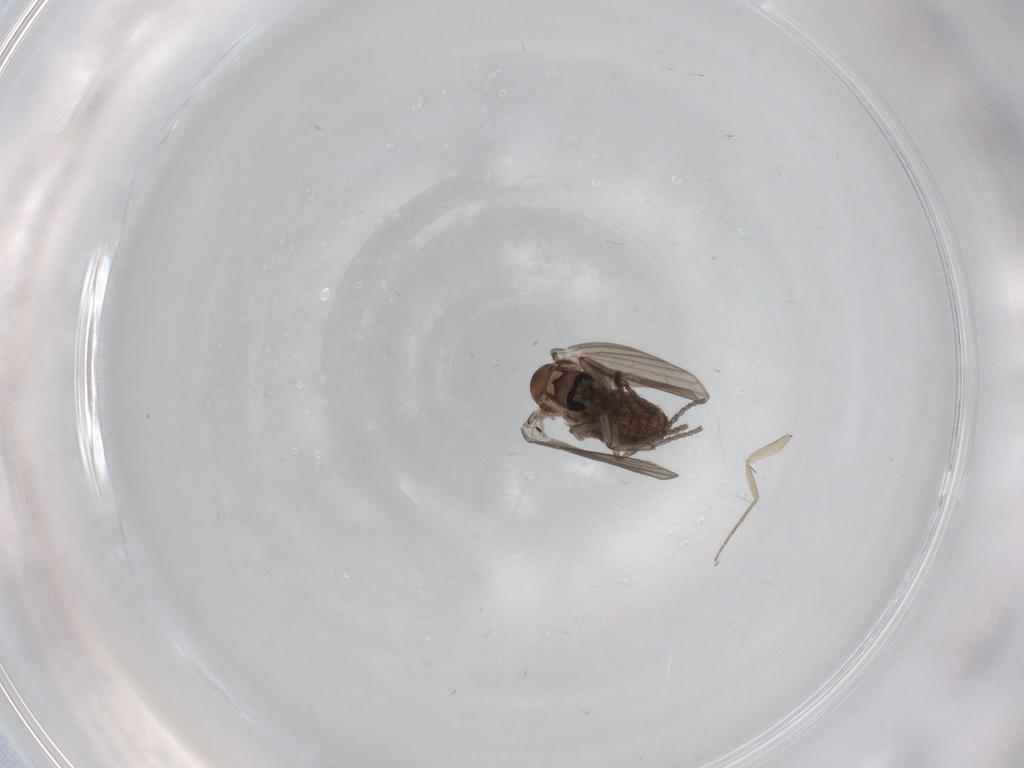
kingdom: Animalia
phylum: Arthropoda
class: Insecta
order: Diptera
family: Psychodidae
